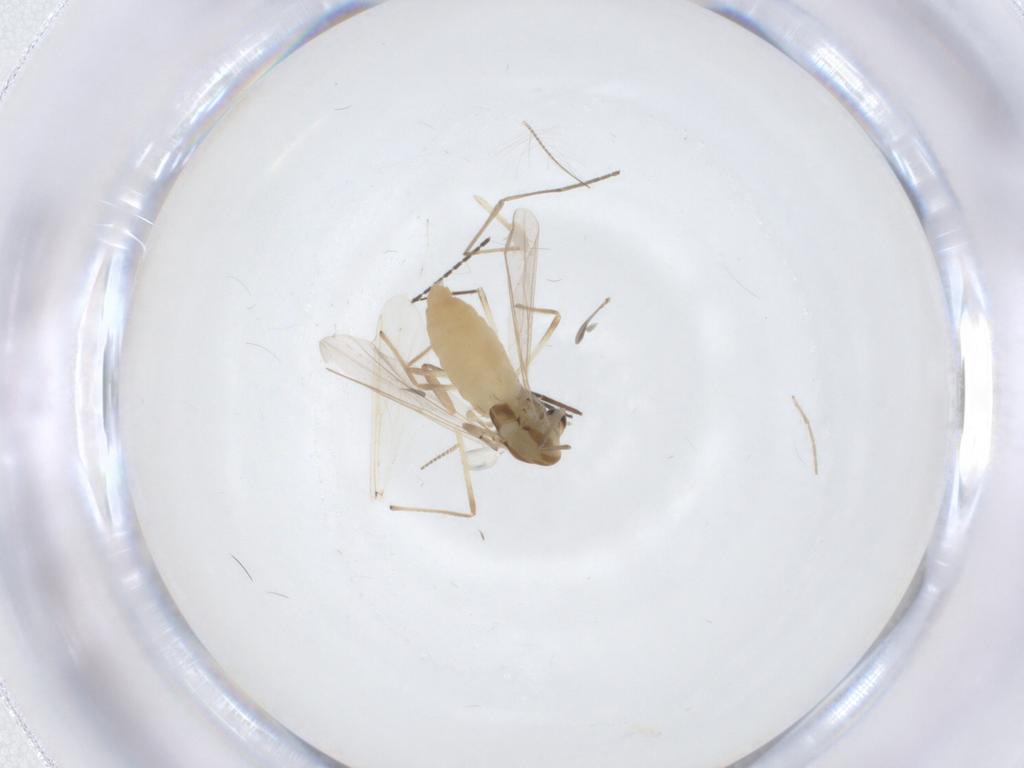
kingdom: Animalia
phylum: Arthropoda
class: Insecta
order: Diptera
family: Chironomidae
